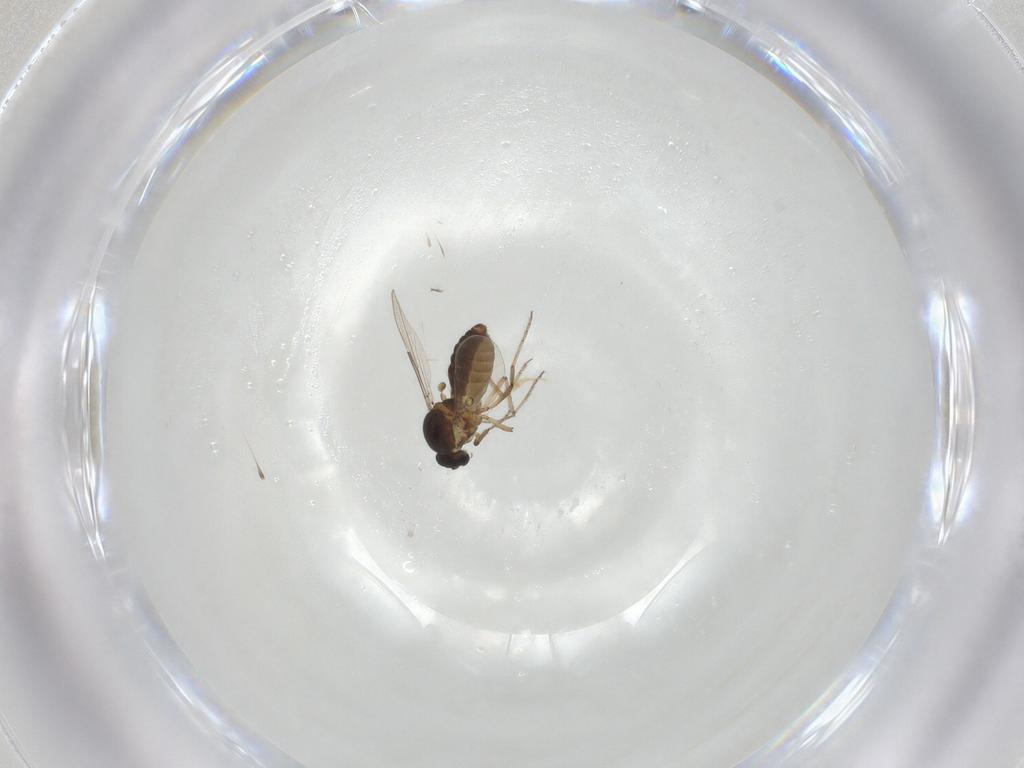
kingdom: Animalia
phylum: Arthropoda
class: Insecta
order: Diptera
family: Ceratopogonidae
